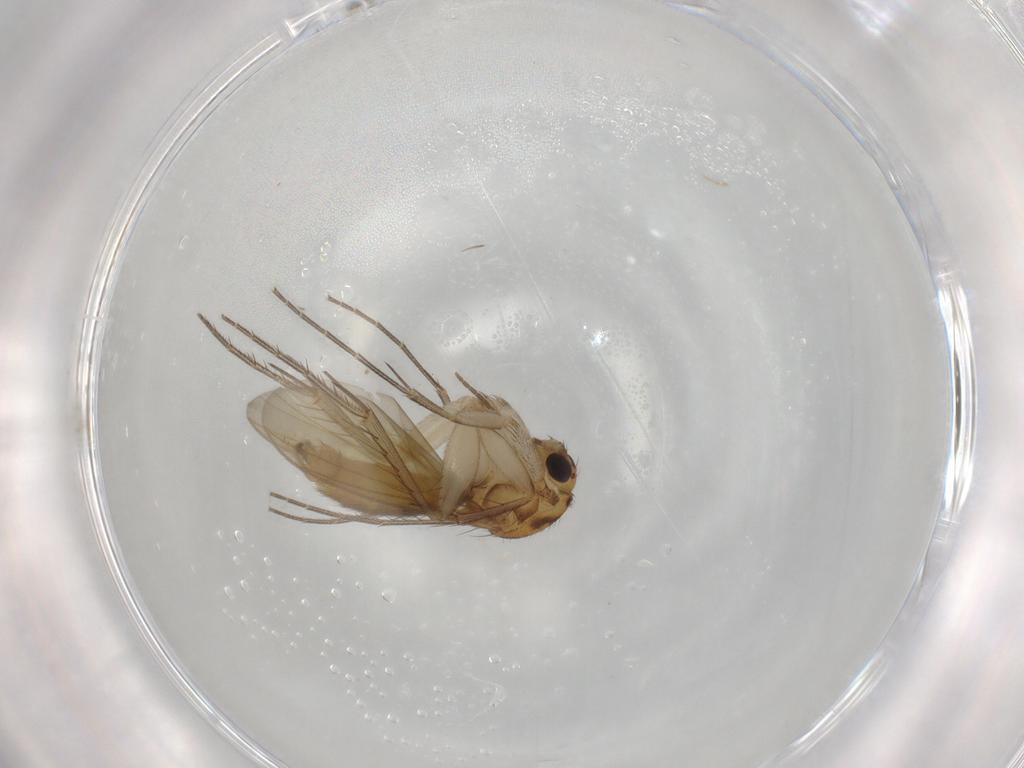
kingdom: Animalia
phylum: Arthropoda
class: Insecta
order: Diptera
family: Mycetophilidae
